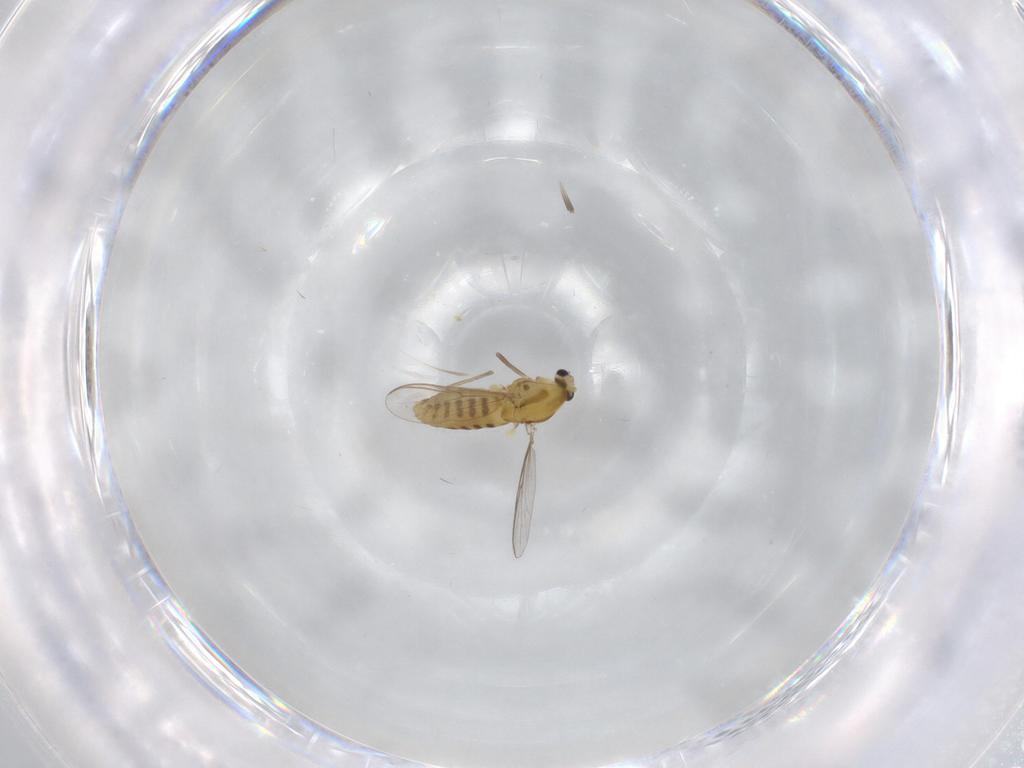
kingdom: Animalia
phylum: Arthropoda
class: Insecta
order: Diptera
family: Chironomidae
